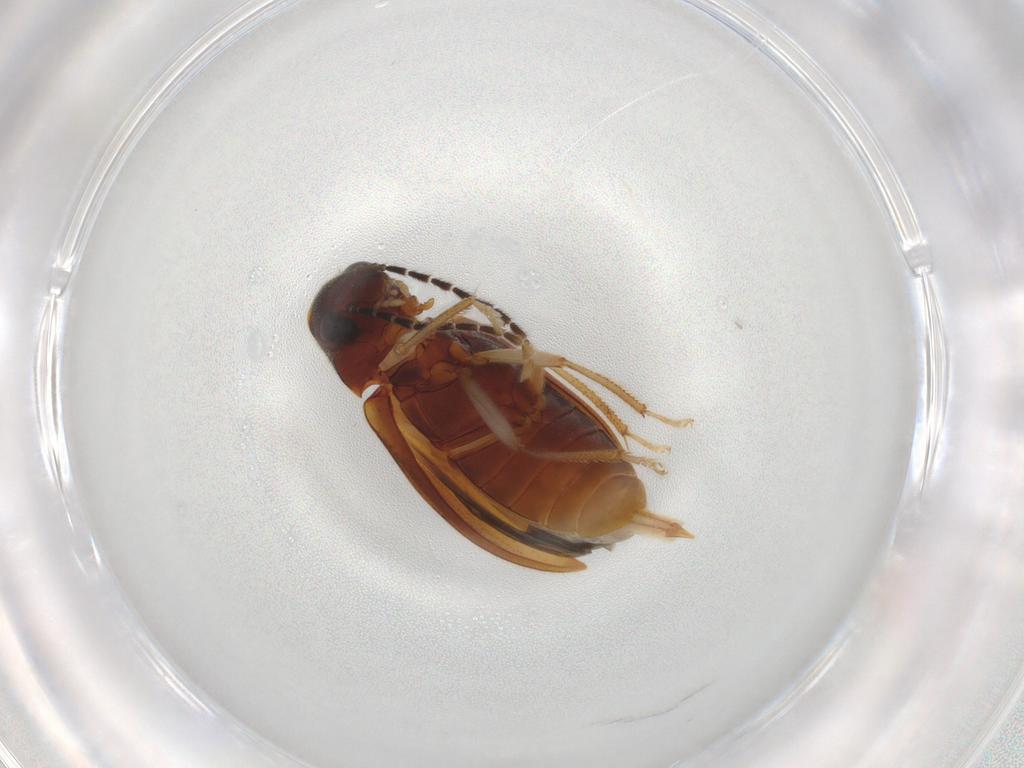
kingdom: Animalia
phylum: Arthropoda
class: Insecta
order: Coleoptera
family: Ptilodactylidae
